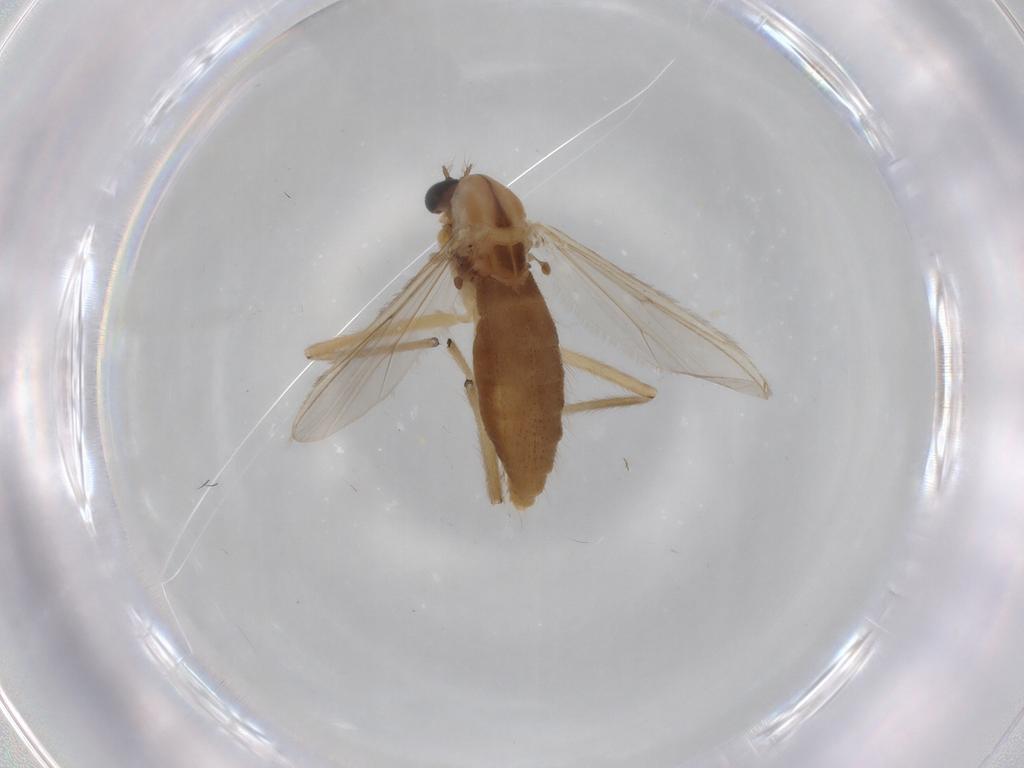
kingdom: Animalia
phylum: Arthropoda
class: Insecta
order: Diptera
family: Chironomidae
